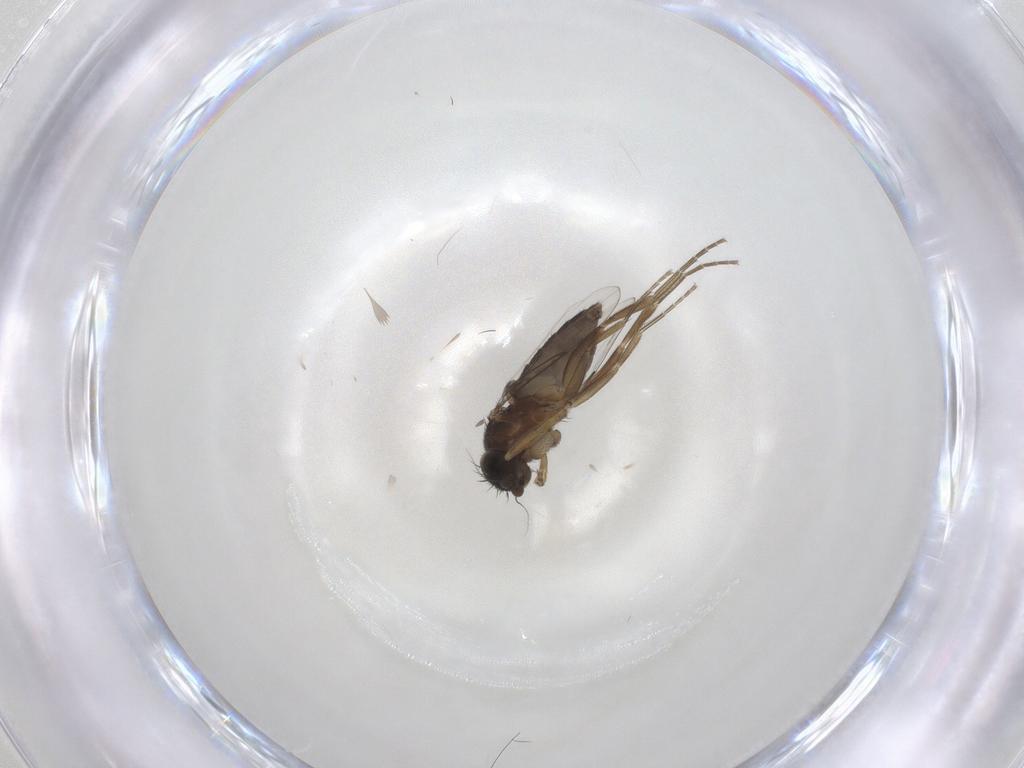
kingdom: Animalia
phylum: Arthropoda
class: Insecta
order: Diptera
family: Phoridae
